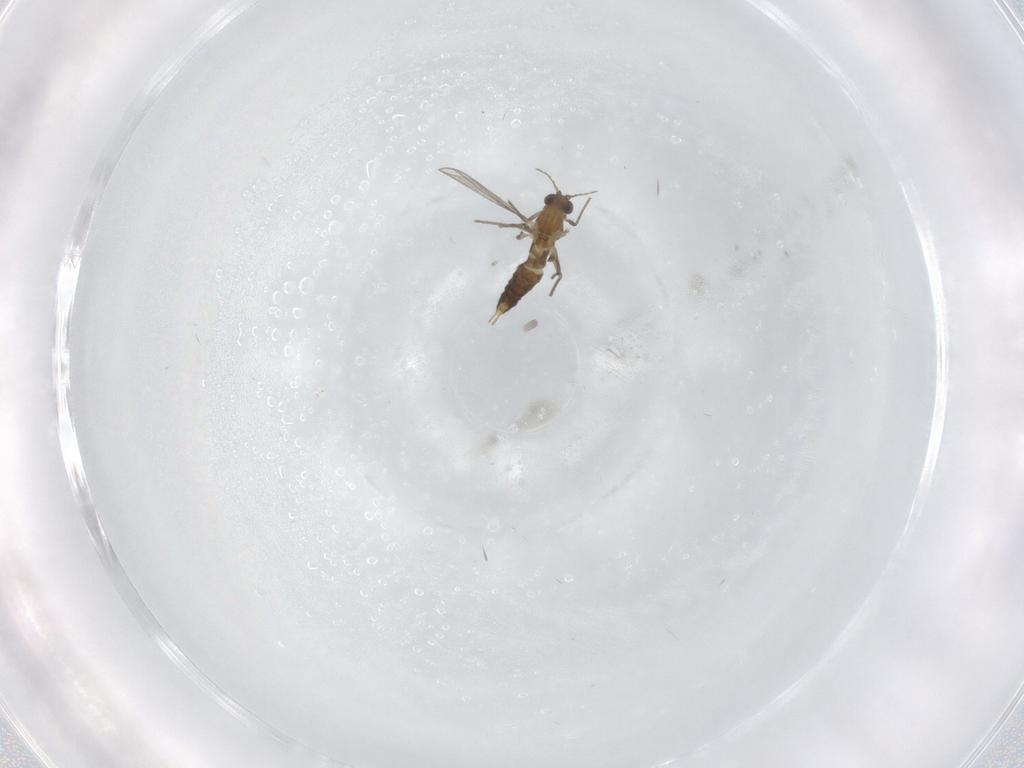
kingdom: Animalia
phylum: Arthropoda
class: Insecta
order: Diptera
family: Chironomidae
